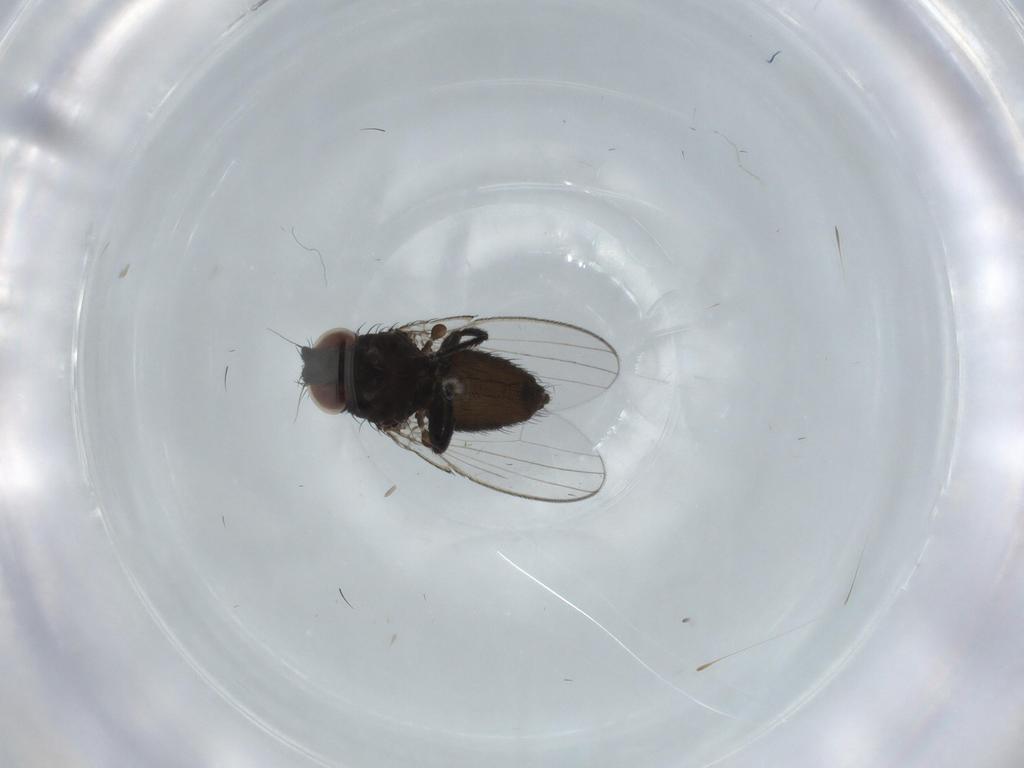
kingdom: Animalia
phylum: Arthropoda
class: Insecta
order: Diptera
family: Milichiidae
